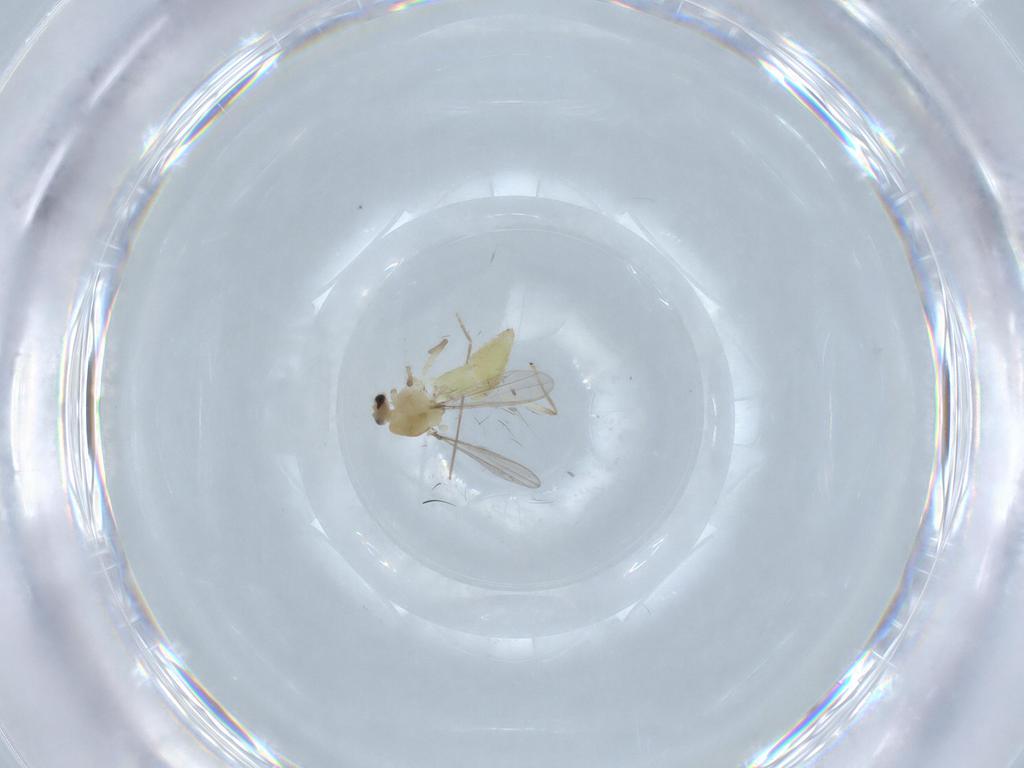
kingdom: Animalia
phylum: Arthropoda
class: Insecta
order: Diptera
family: Chironomidae
